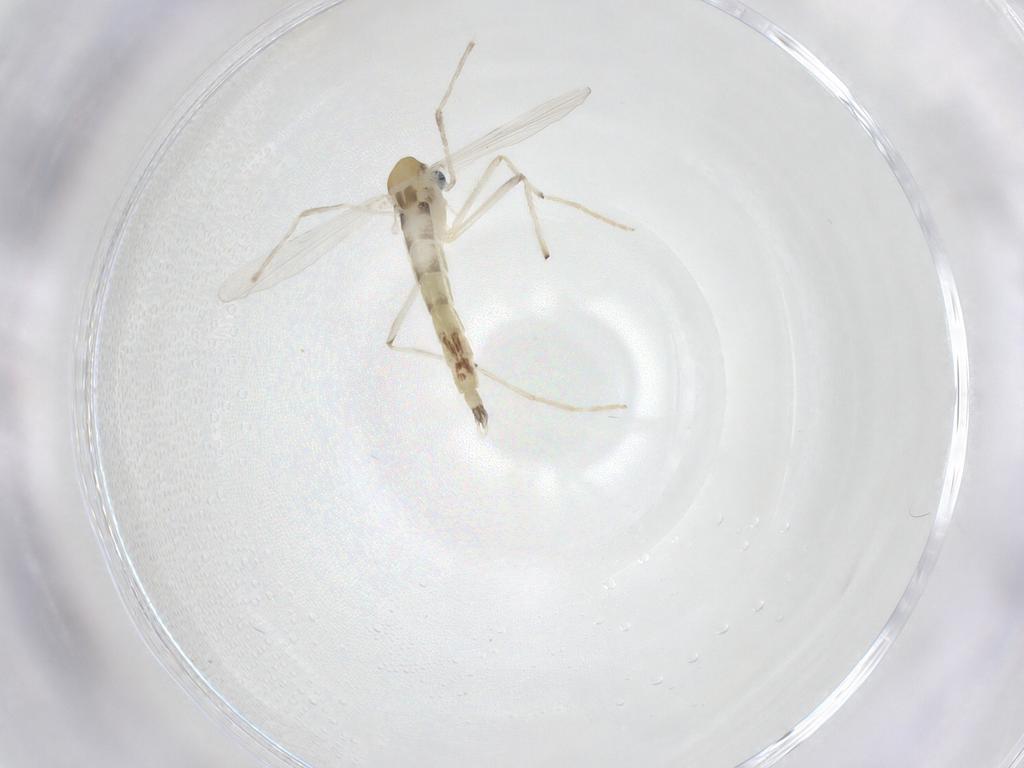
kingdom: Animalia
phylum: Arthropoda
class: Insecta
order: Diptera
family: Chironomidae
